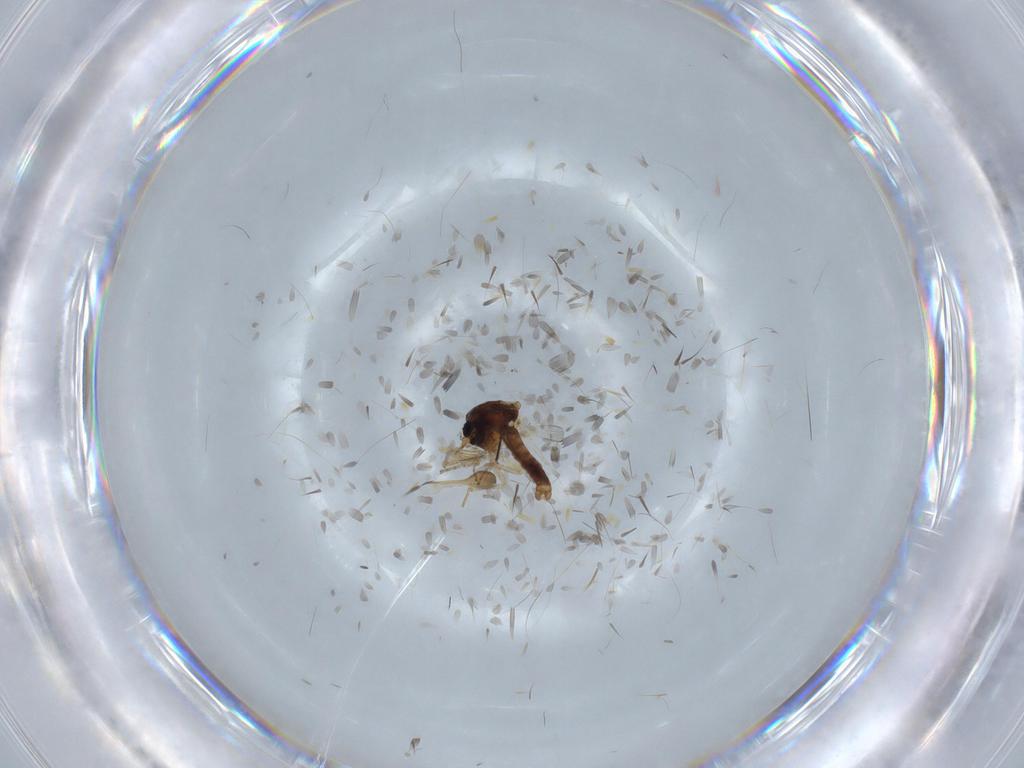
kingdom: Animalia
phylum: Arthropoda
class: Insecta
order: Diptera
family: Ceratopogonidae
